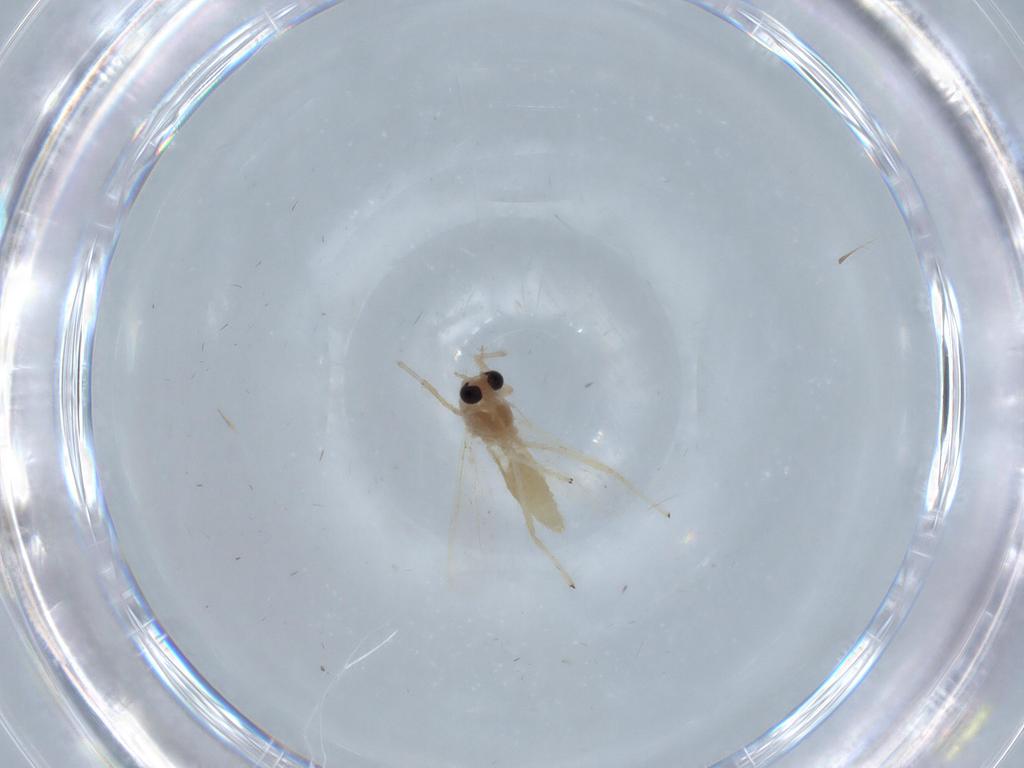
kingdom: Animalia
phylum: Arthropoda
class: Insecta
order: Diptera
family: Chironomidae
